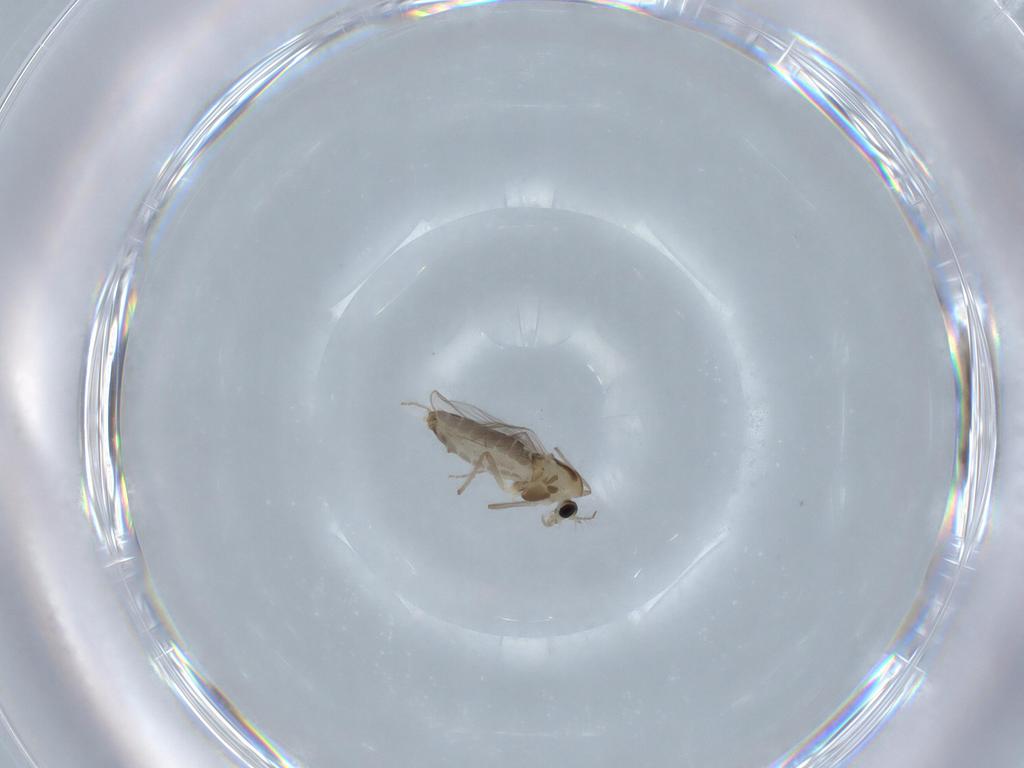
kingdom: Animalia
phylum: Arthropoda
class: Insecta
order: Diptera
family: Chironomidae
